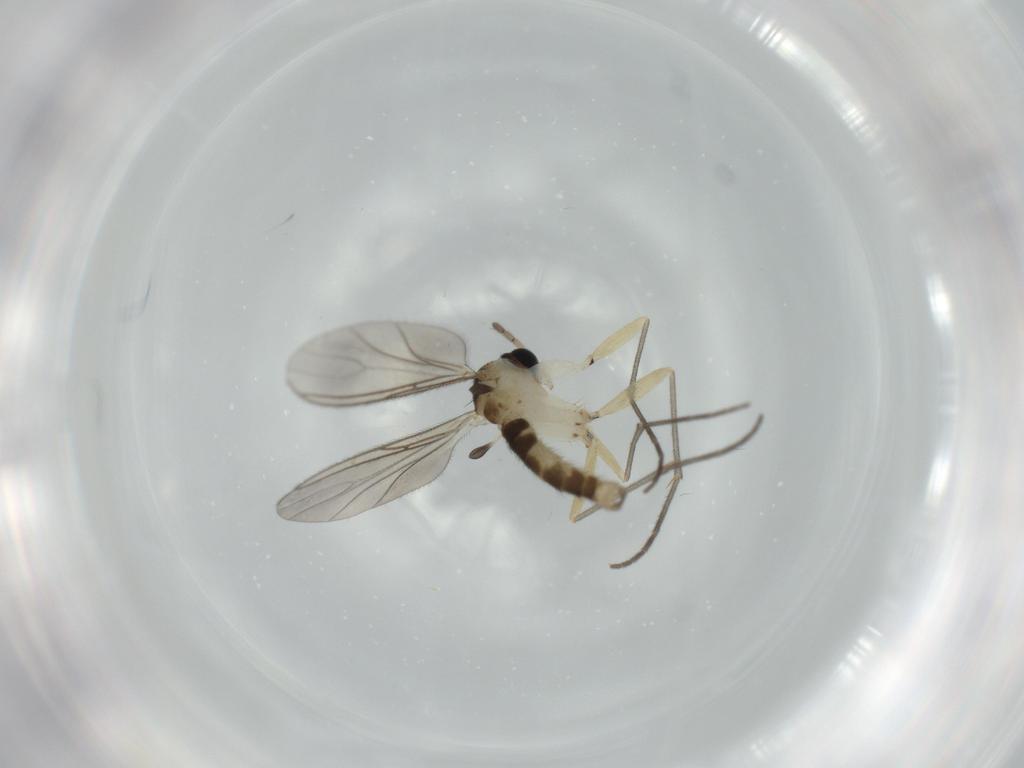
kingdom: Animalia
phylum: Arthropoda
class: Insecta
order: Diptera
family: Sciaridae
